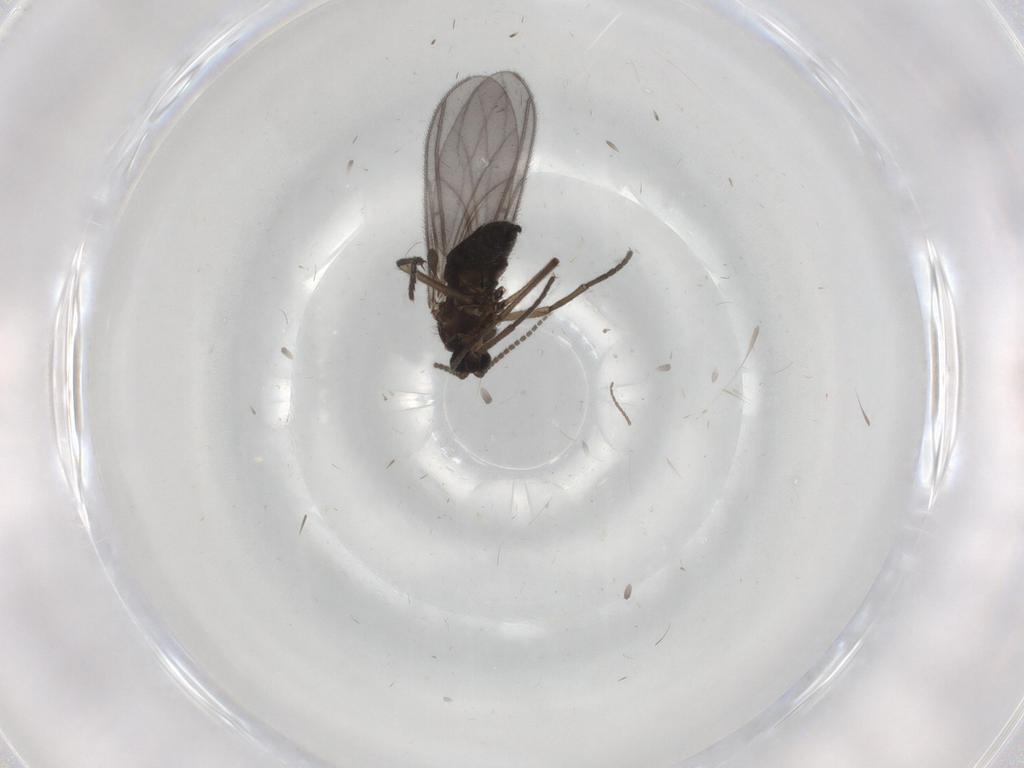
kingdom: Animalia
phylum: Arthropoda
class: Insecta
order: Diptera
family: Sciaridae
